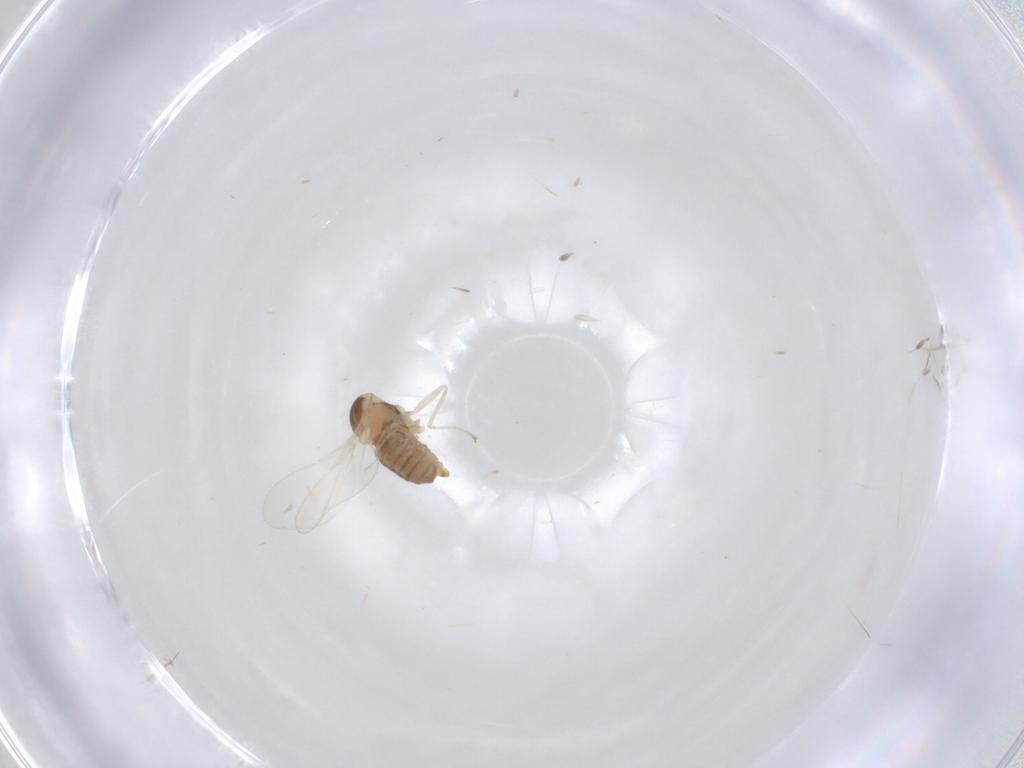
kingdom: Animalia
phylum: Arthropoda
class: Insecta
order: Diptera
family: Cecidomyiidae
